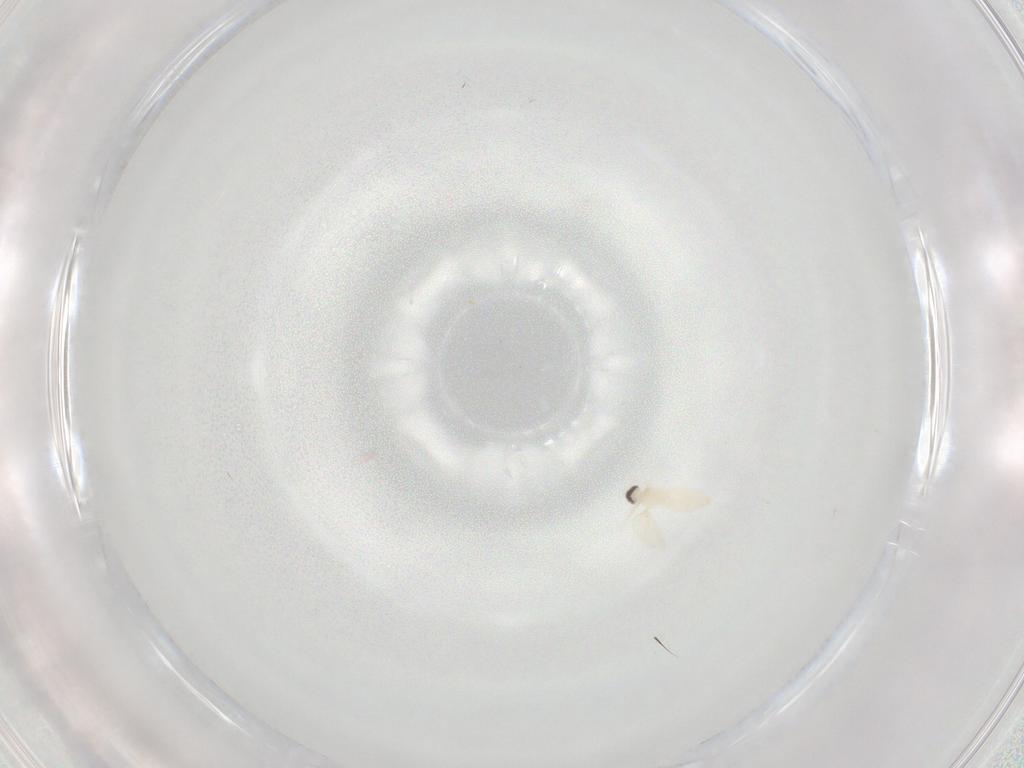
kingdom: Animalia
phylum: Arthropoda
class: Insecta
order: Diptera
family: Cecidomyiidae
